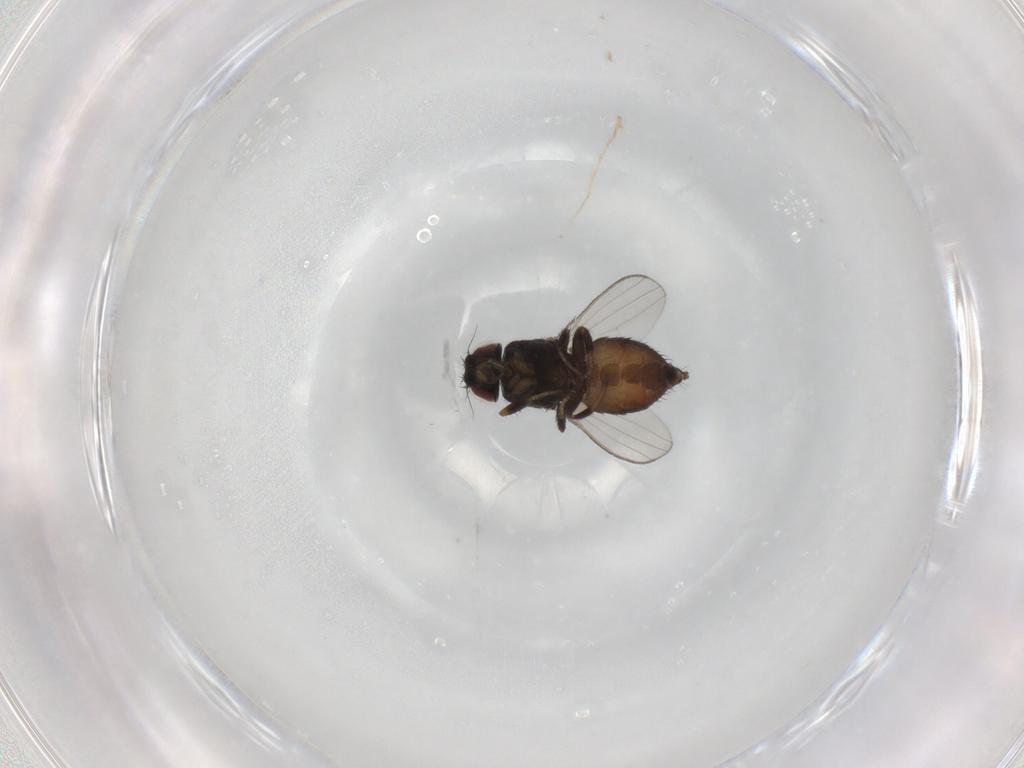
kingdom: Animalia
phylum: Arthropoda
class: Insecta
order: Diptera
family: Milichiidae
